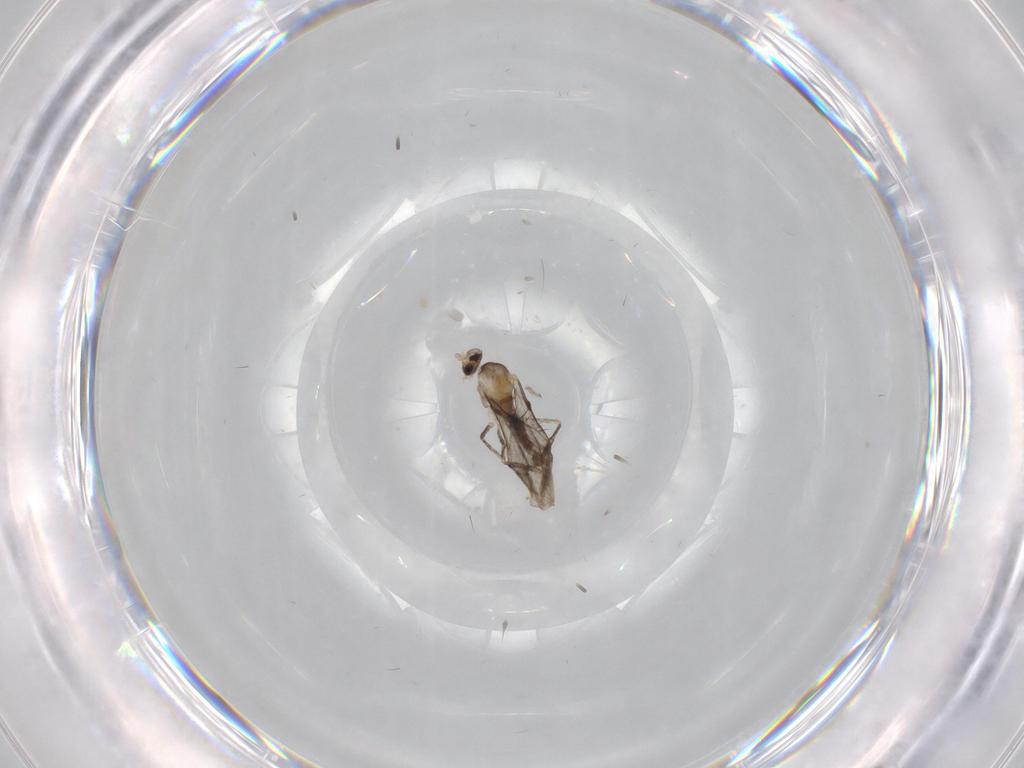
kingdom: Animalia
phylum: Arthropoda
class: Insecta
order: Diptera
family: Cecidomyiidae
